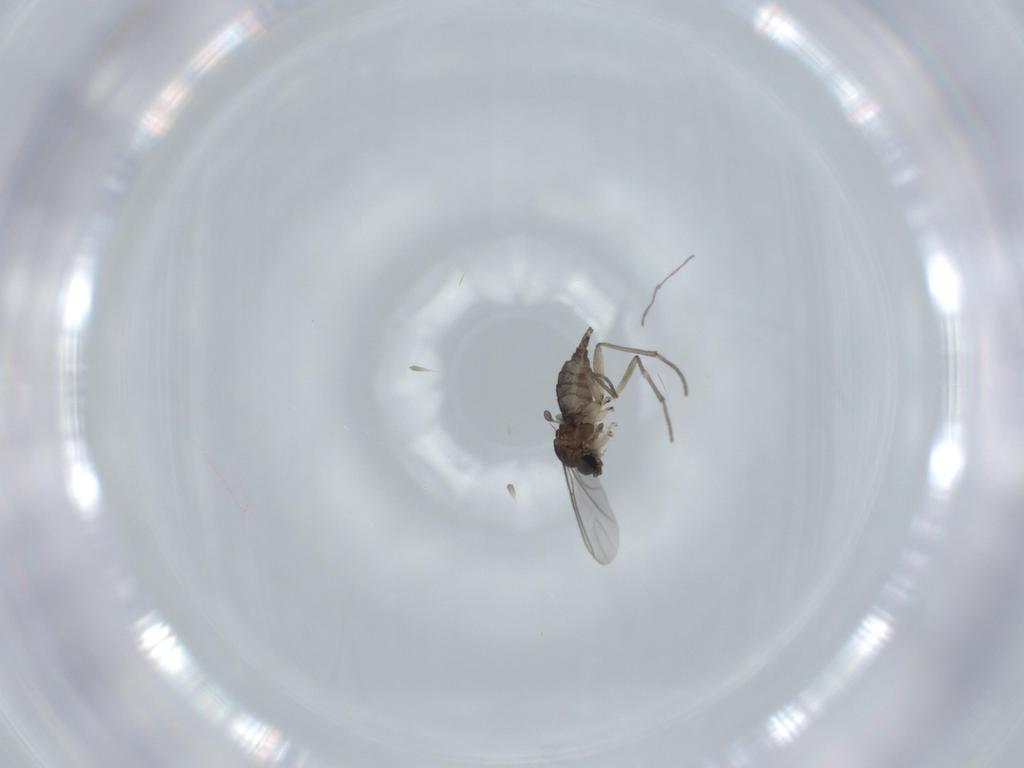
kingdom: Animalia
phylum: Arthropoda
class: Insecta
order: Diptera
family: Sciaridae
